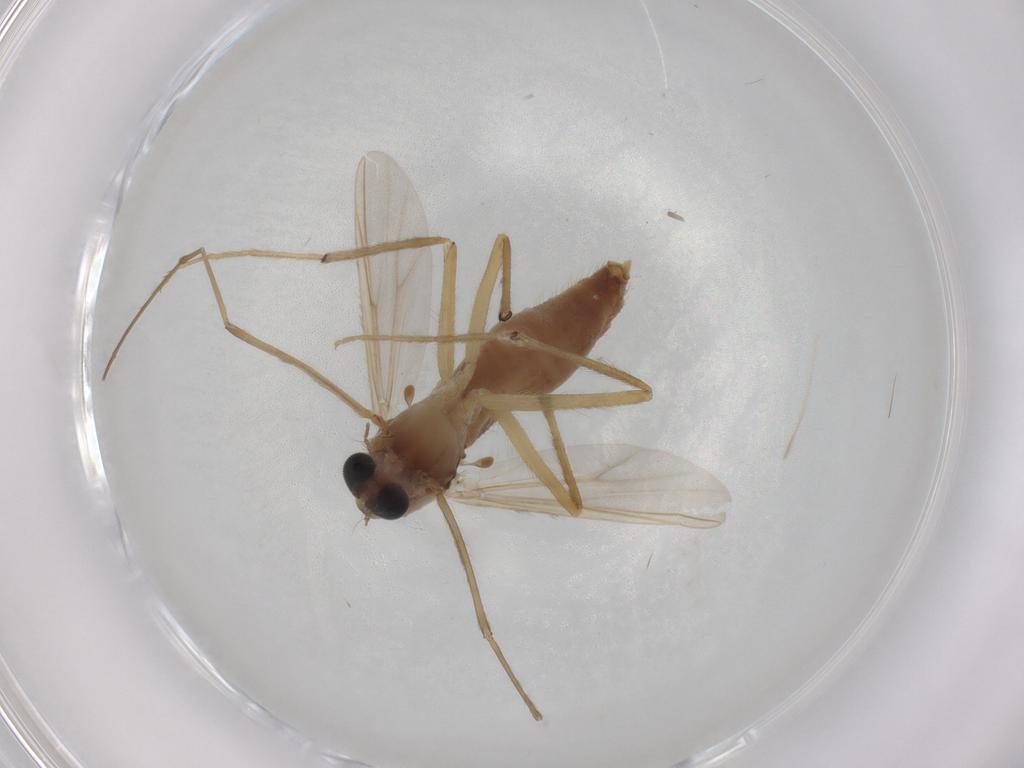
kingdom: Animalia
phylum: Arthropoda
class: Insecta
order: Diptera
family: Chironomidae
